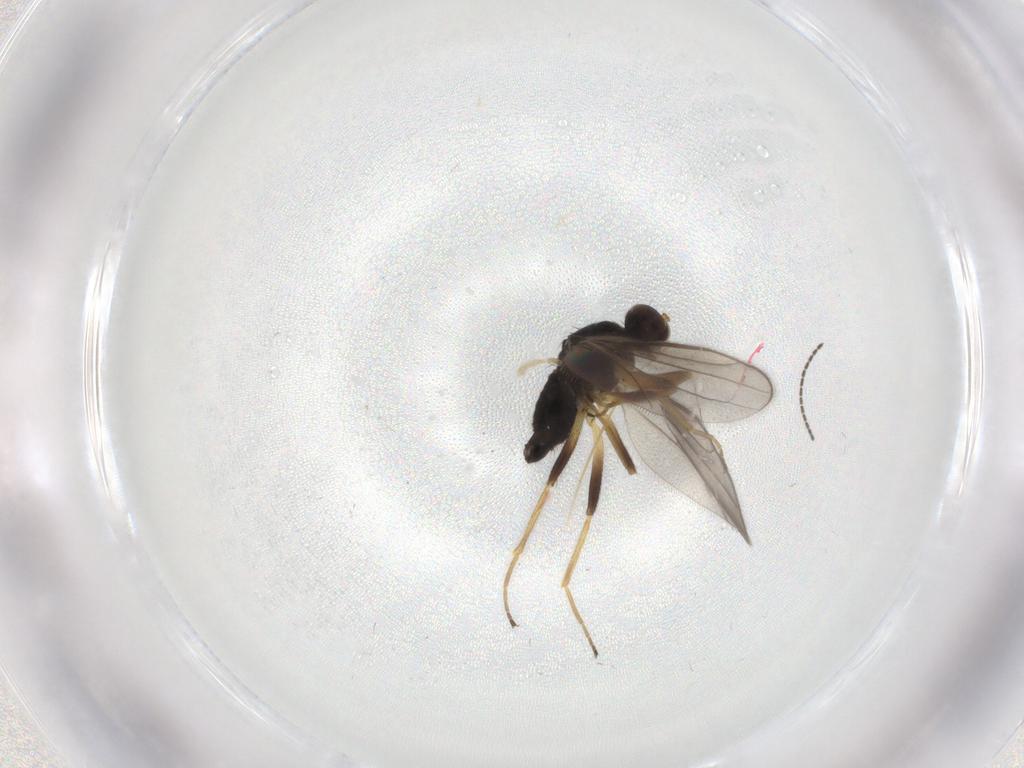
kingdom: Animalia
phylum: Arthropoda
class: Insecta
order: Diptera
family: Hybotidae
